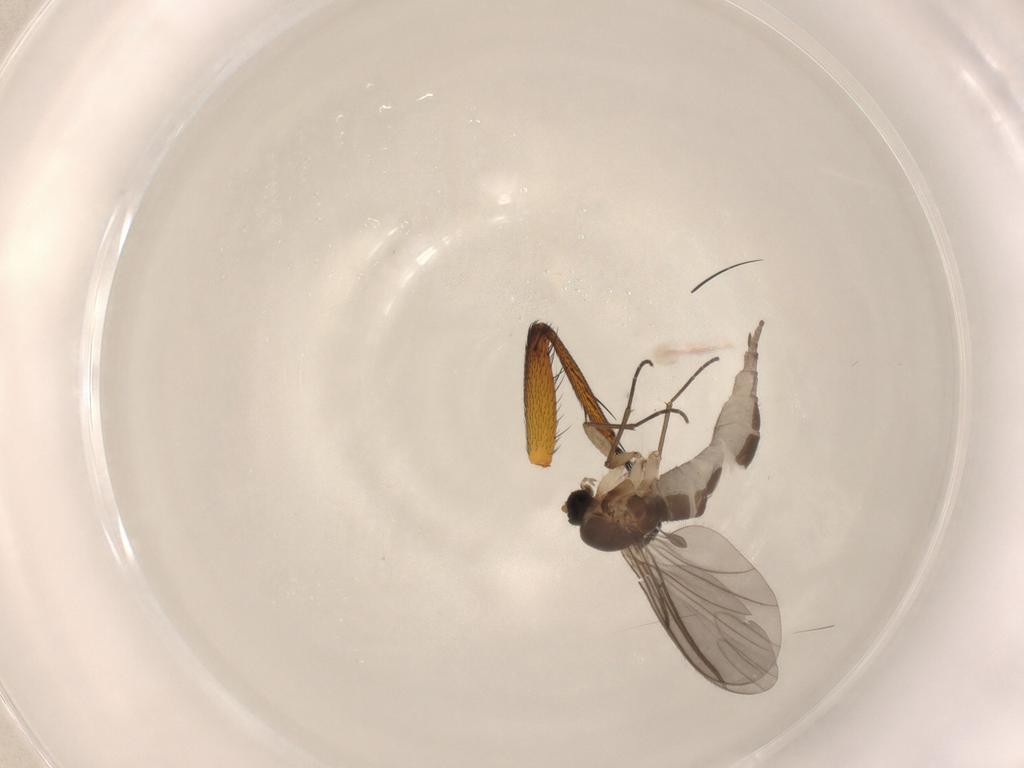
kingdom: Animalia
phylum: Arthropoda
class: Insecta
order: Diptera
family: Sciaridae
